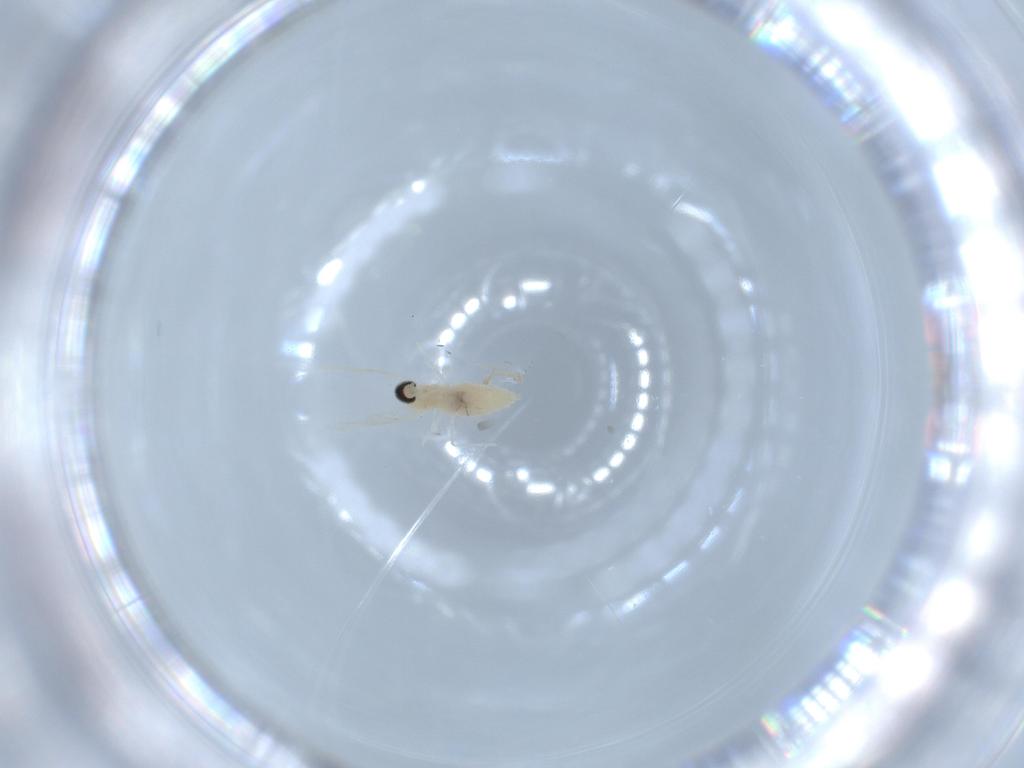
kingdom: Animalia
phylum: Arthropoda
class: Insecta
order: Diptera
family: Cecidomyiidae
